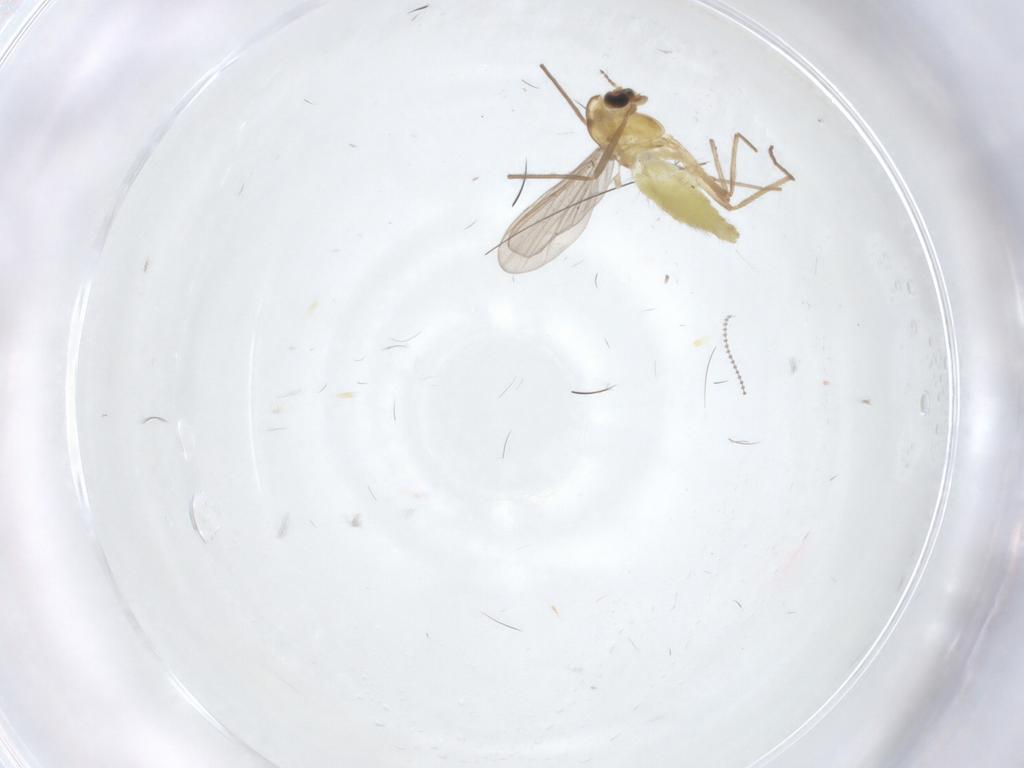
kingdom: Animalia
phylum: Arthropoda
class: Insecta
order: Diptera
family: Chironomidae
